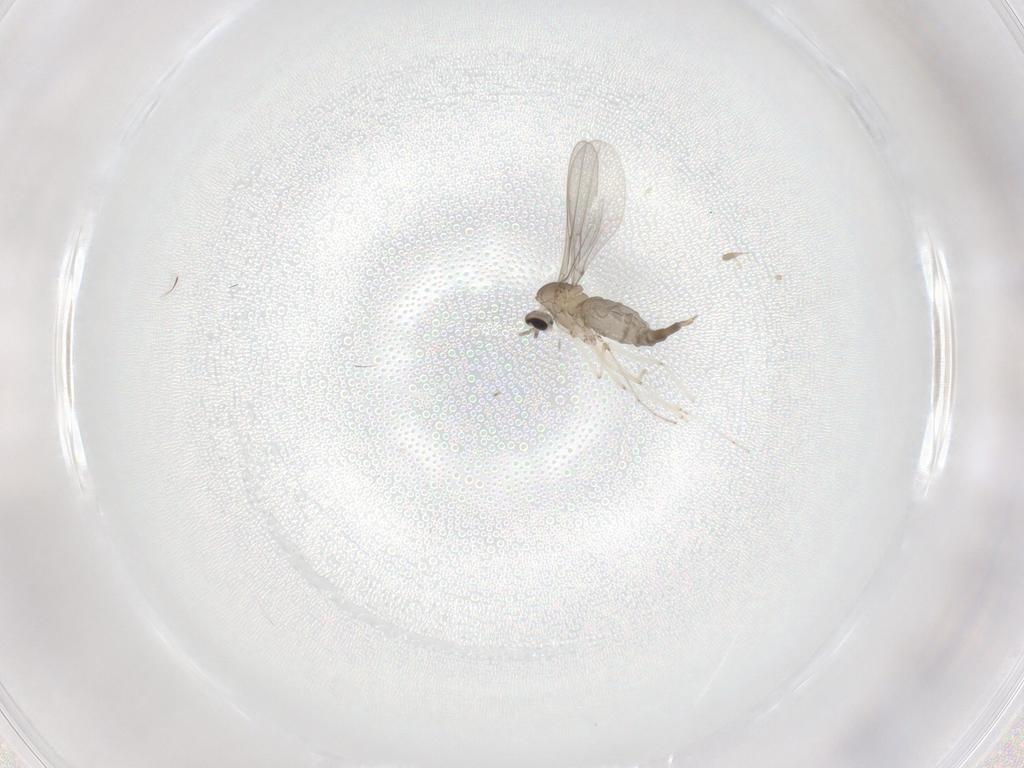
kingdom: Animalia
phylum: Arthropoda
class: Insecta
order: Diptera
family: Cecidomyiidae
